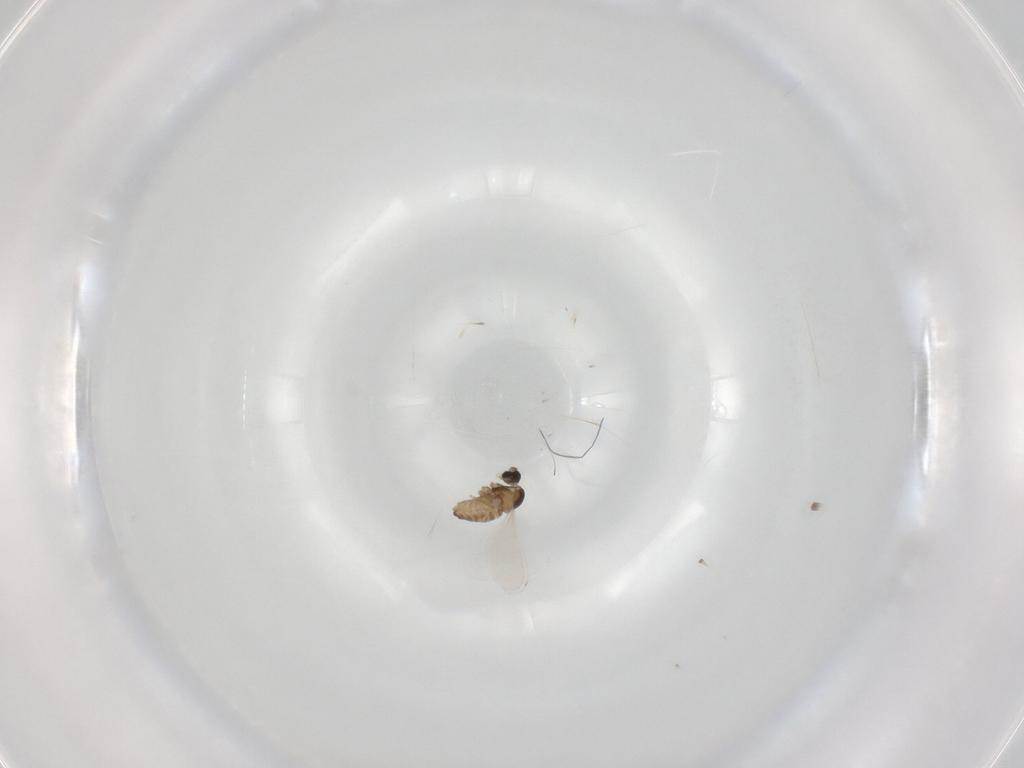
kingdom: Animalia
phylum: Arthropoda
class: Insecta
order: Diptera
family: Cecidomyiidae
